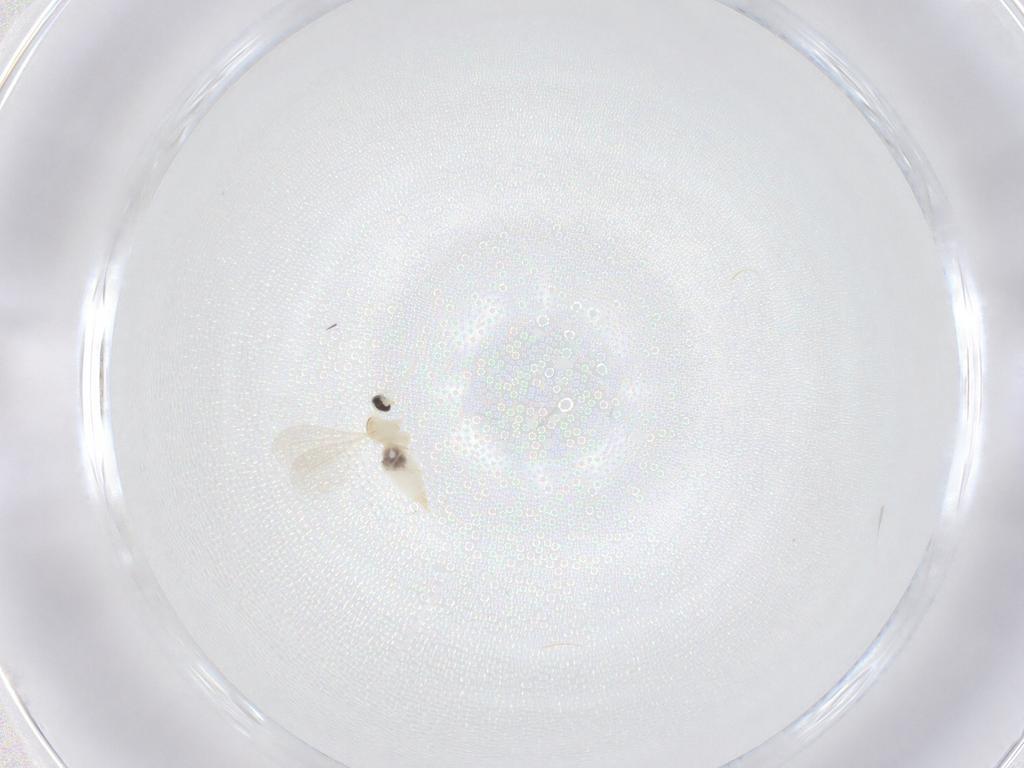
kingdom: Animalia
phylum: Arthropoda
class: Insecta
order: Diptera
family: Cecidomyiidae
